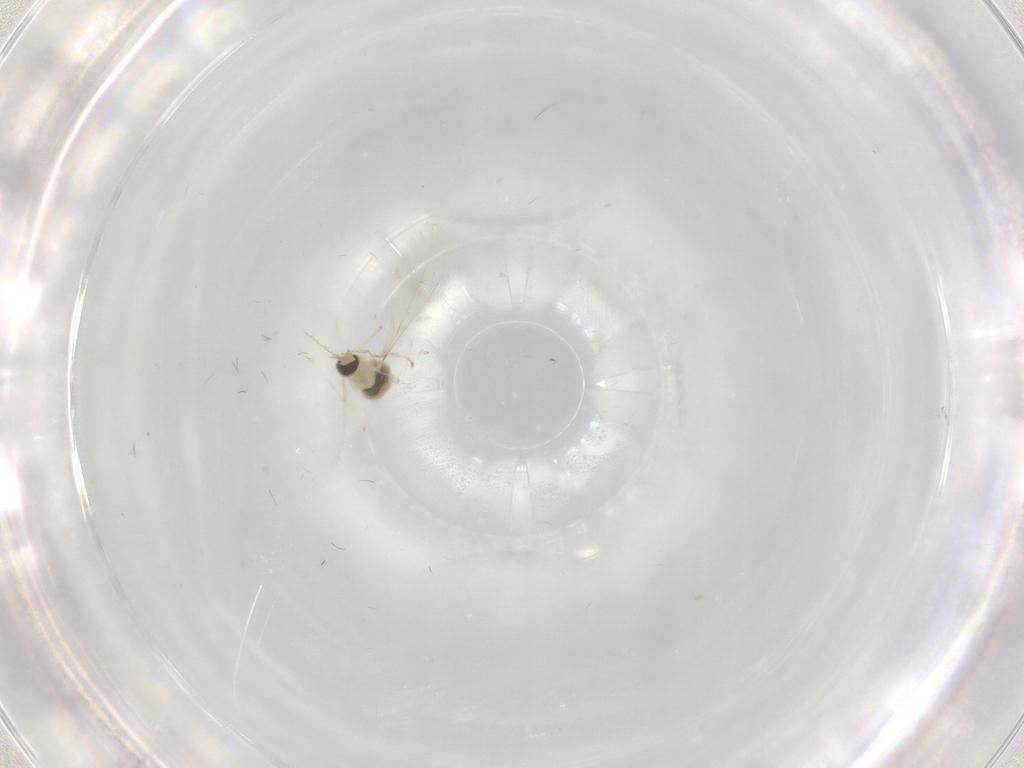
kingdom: Animalia
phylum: Arthropoda
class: Insecta
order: Diptera
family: Cecidomyiidae
